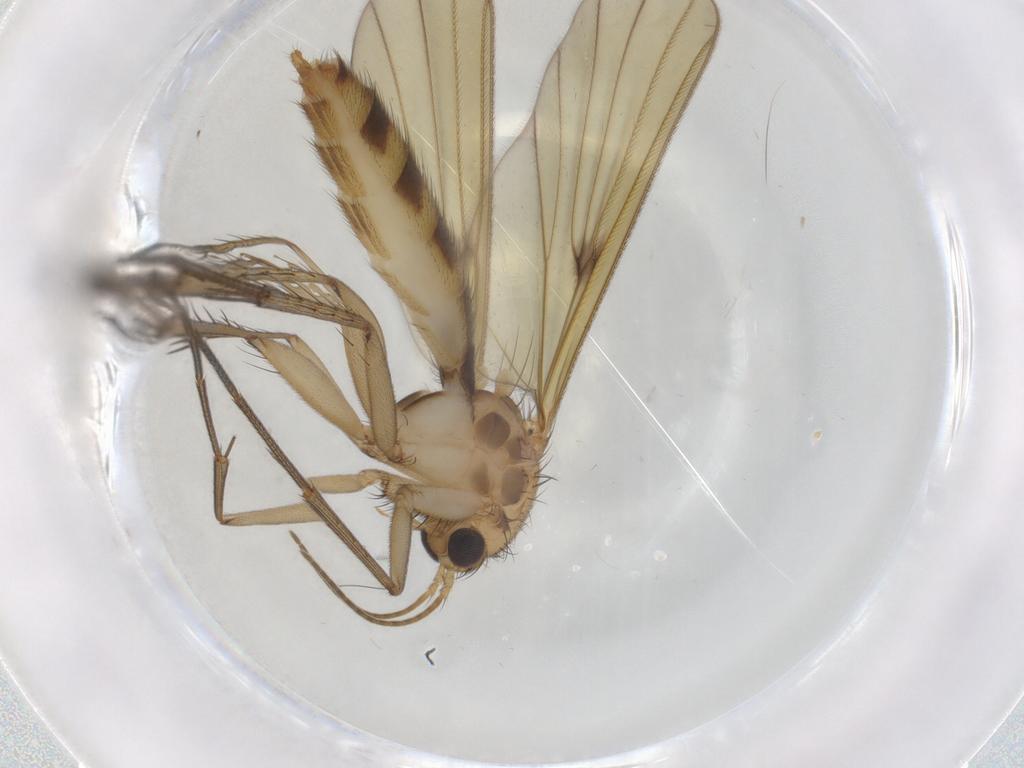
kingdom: Animalia
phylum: Arthropoda
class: Insecta
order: Diptera
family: Mycetophilidae
